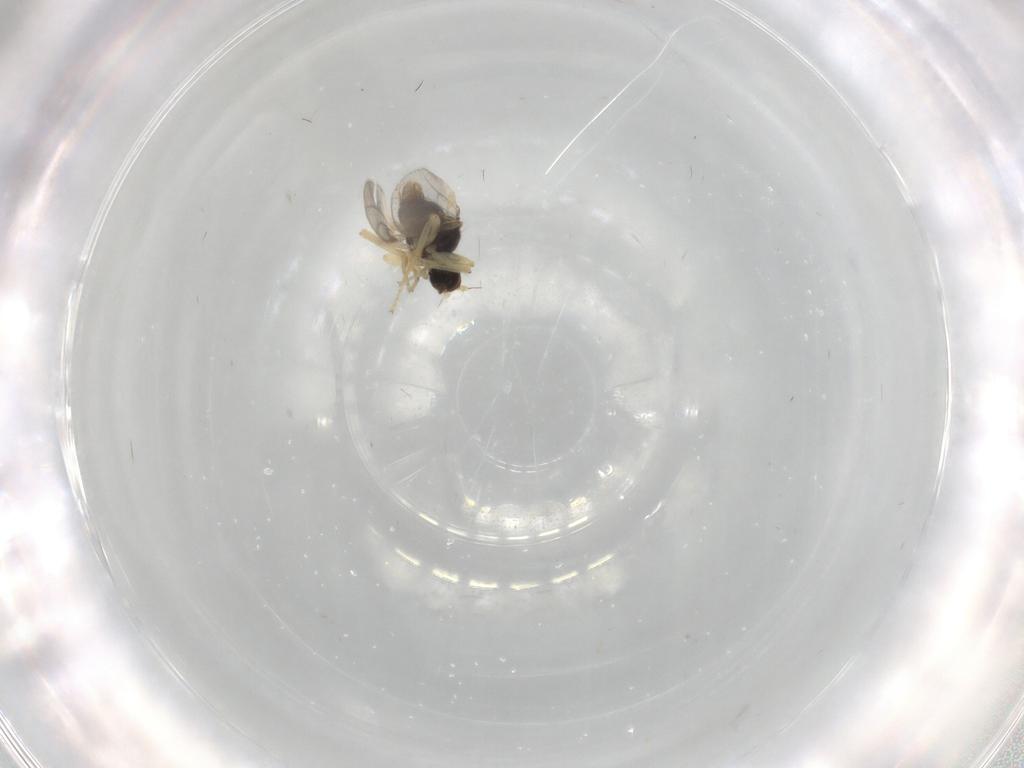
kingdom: Animalia
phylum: Arthropoda
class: Insecta
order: Diptera
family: Hybotidae
